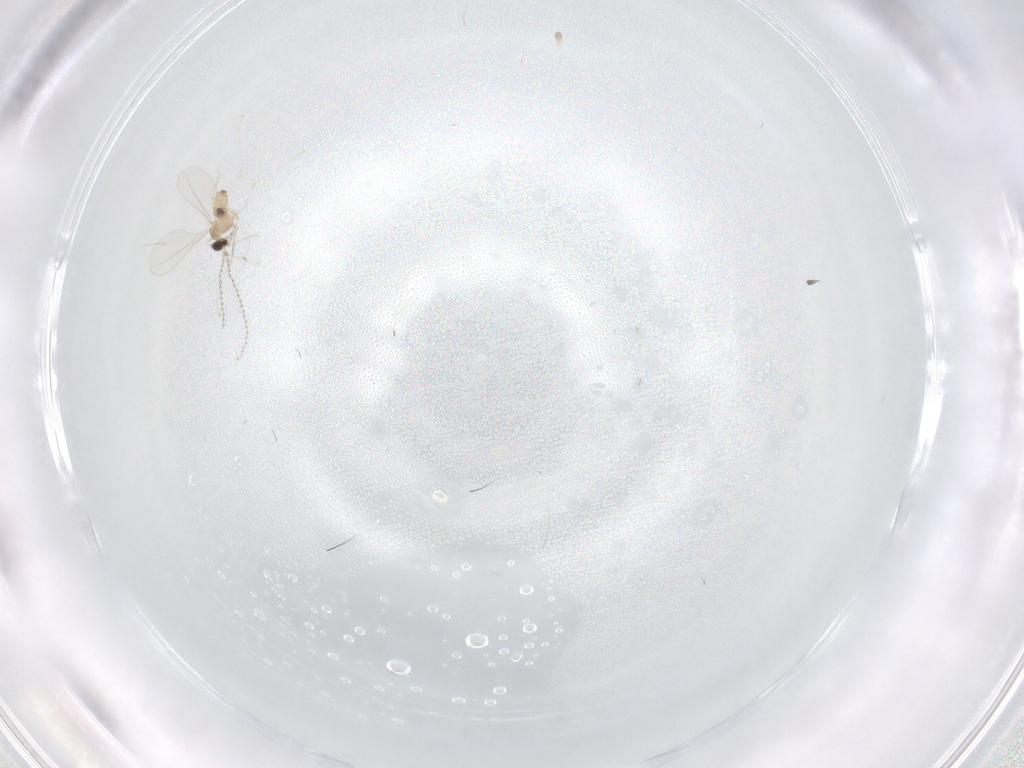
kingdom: Animalia
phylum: Arthropoda
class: Insecta
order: Diptera
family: Cecidomyiidae
